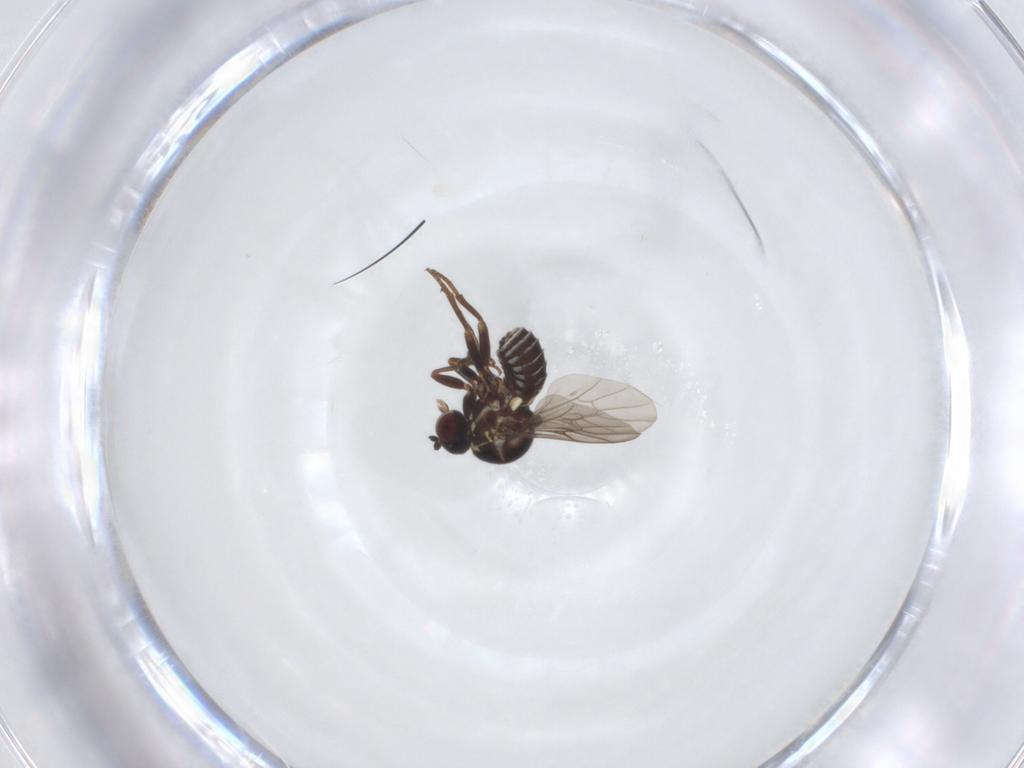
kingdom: Animalia
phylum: Arthropoda
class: Insecta
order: Diptera
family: Mythicomyiidae
